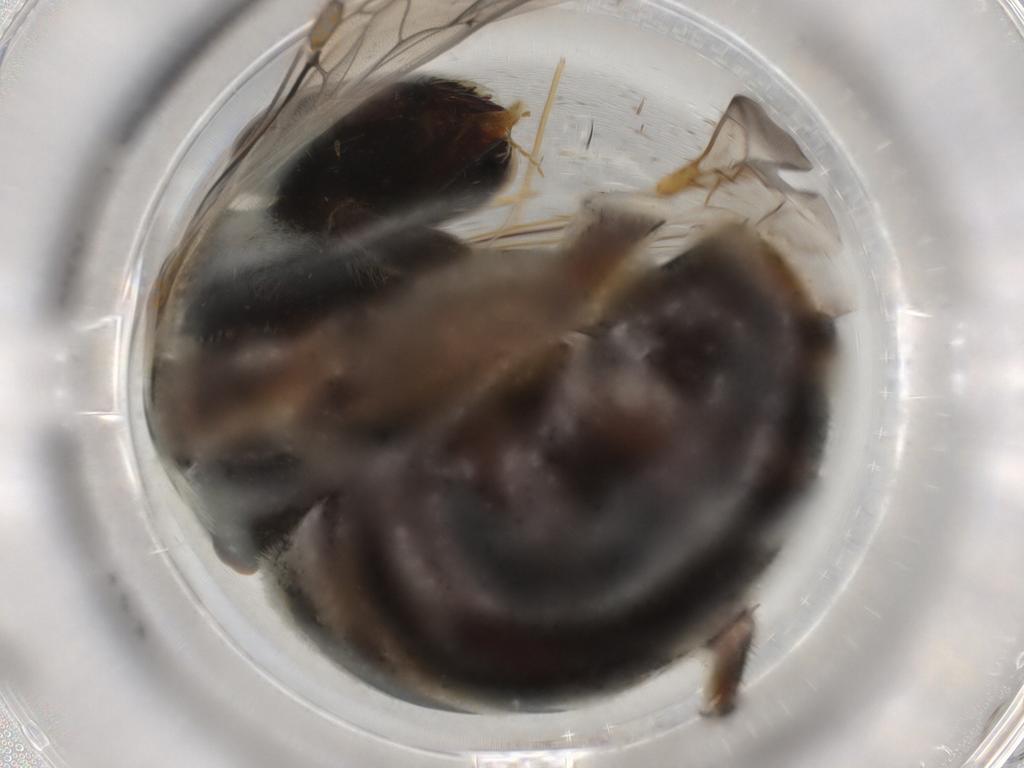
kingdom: Animalia
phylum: Arthropoda
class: Insecta
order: Hymenoptera
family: Vespidae
